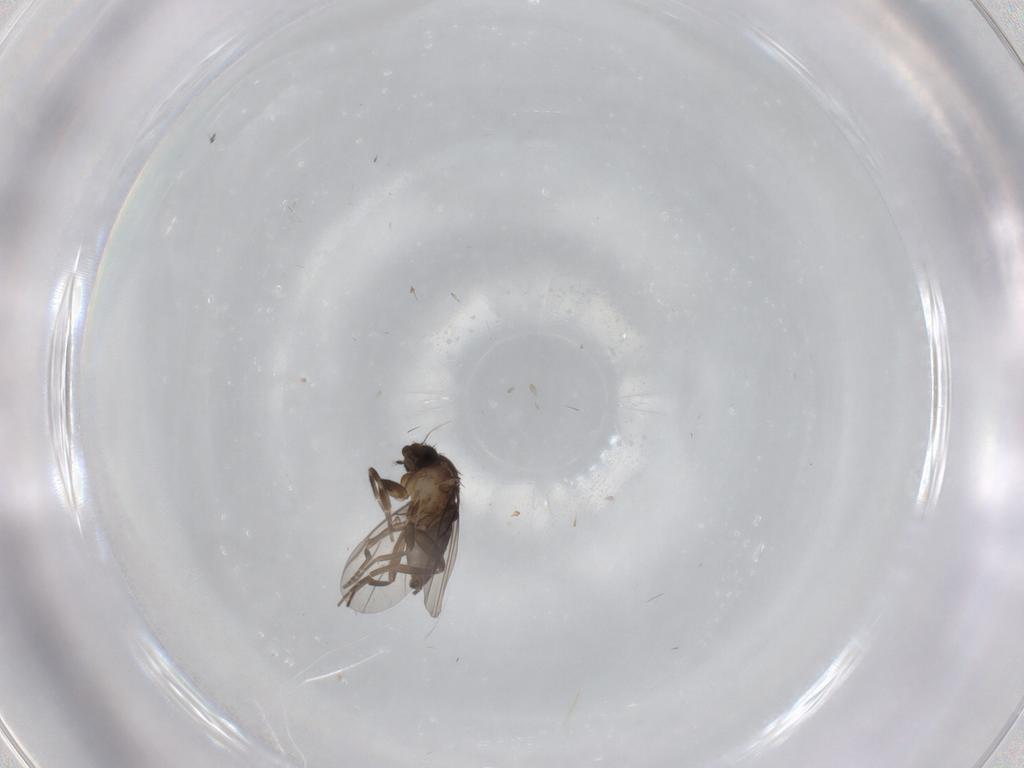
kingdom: Animalia
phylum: Arthropoda
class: Insecta
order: Diptera
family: Phoridae
